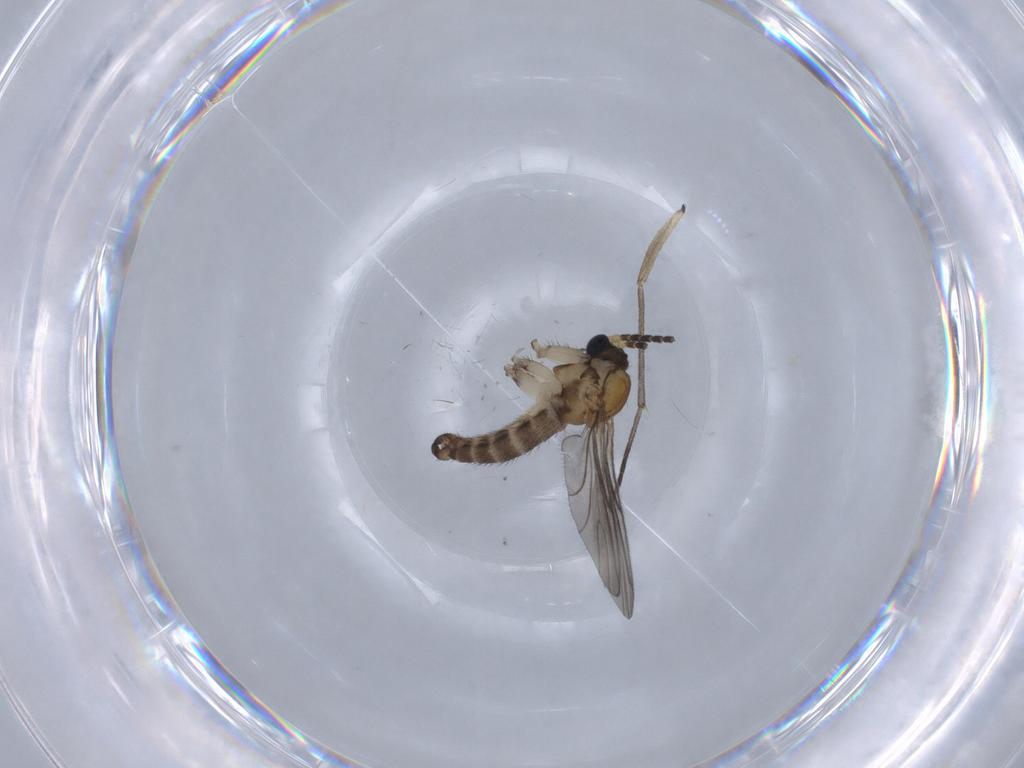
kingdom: Animalia
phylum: Arthropoda
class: Insecta
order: Diptera
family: Sciaridae
